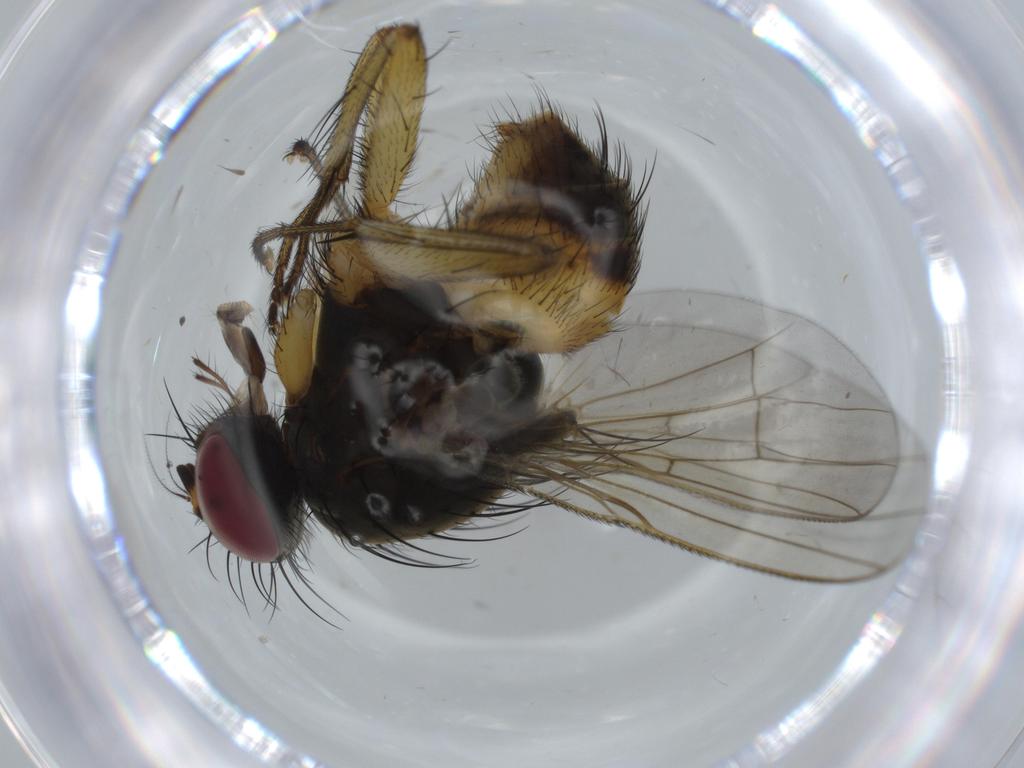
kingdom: Animalia
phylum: Arthropoda
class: Insecta
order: Diptera
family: Muscidae
